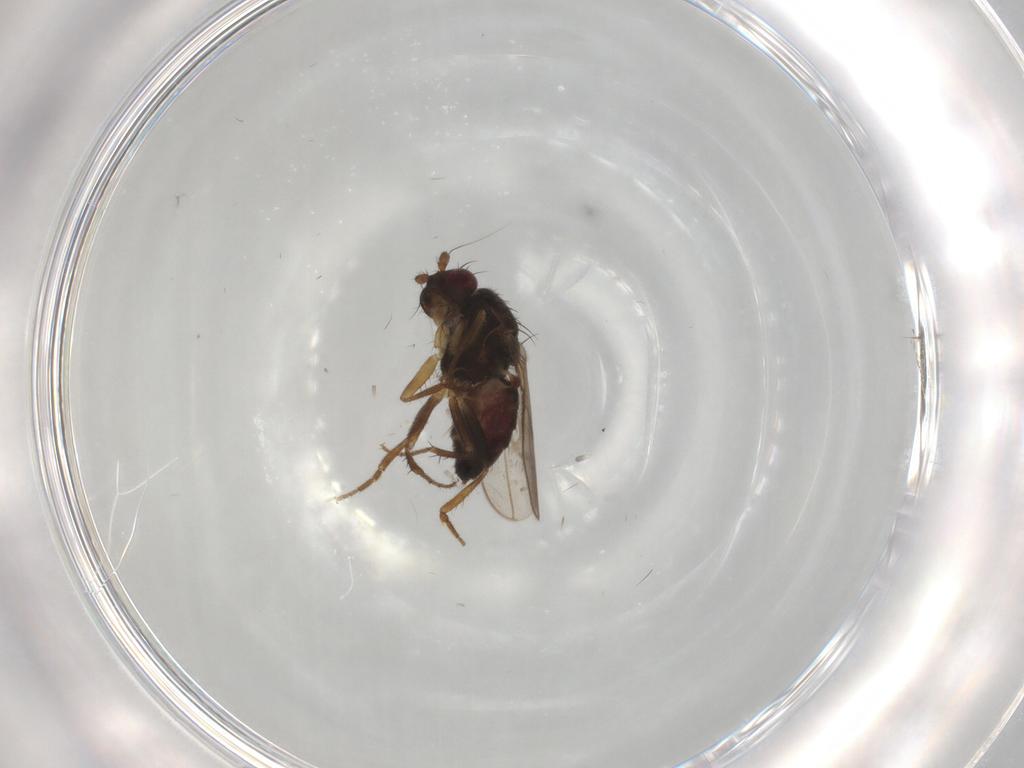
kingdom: Animalia
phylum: Arthropoda
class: Insecta
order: Diptera
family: Sphaeroceridae
